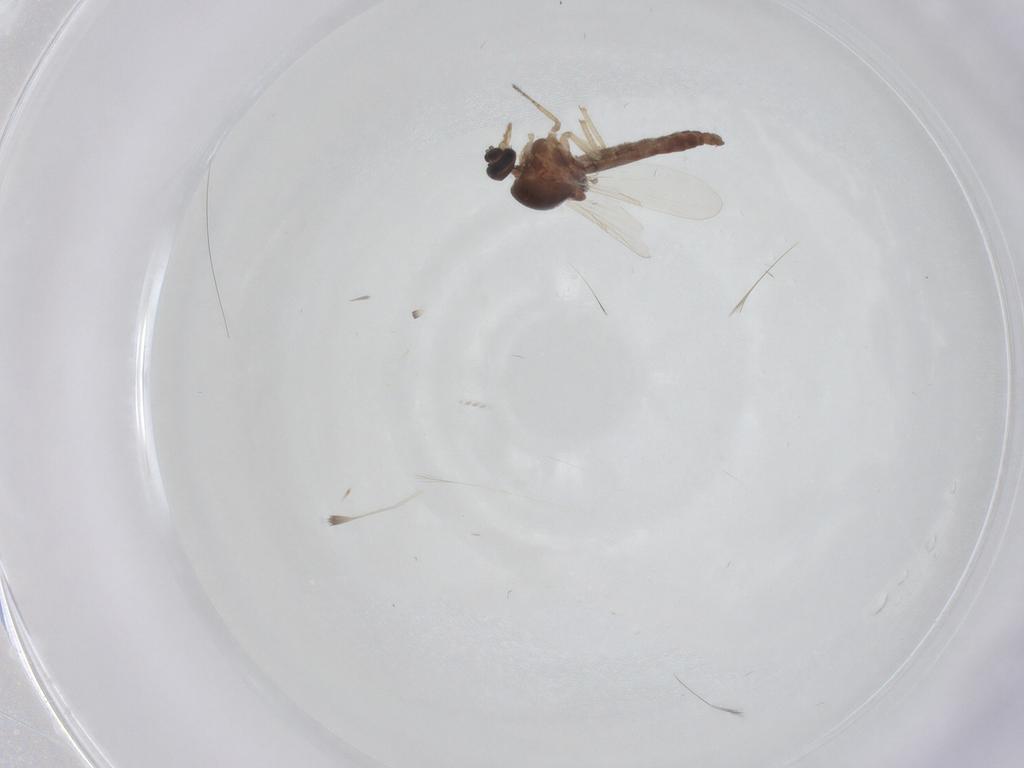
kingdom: Animalia
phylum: Arthropoda
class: Insecta
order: Diptera
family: Ceratopogonidae
